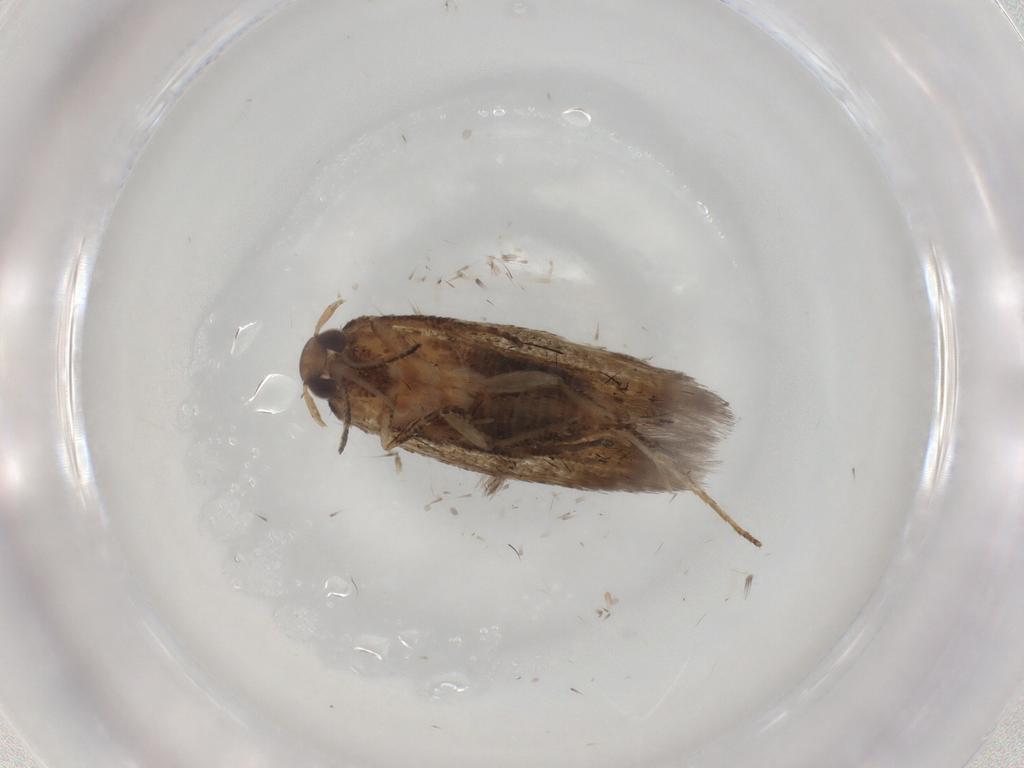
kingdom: Animalia
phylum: Arthropoda
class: Insecta
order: Lepidoptera
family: Cosmopterigidae
